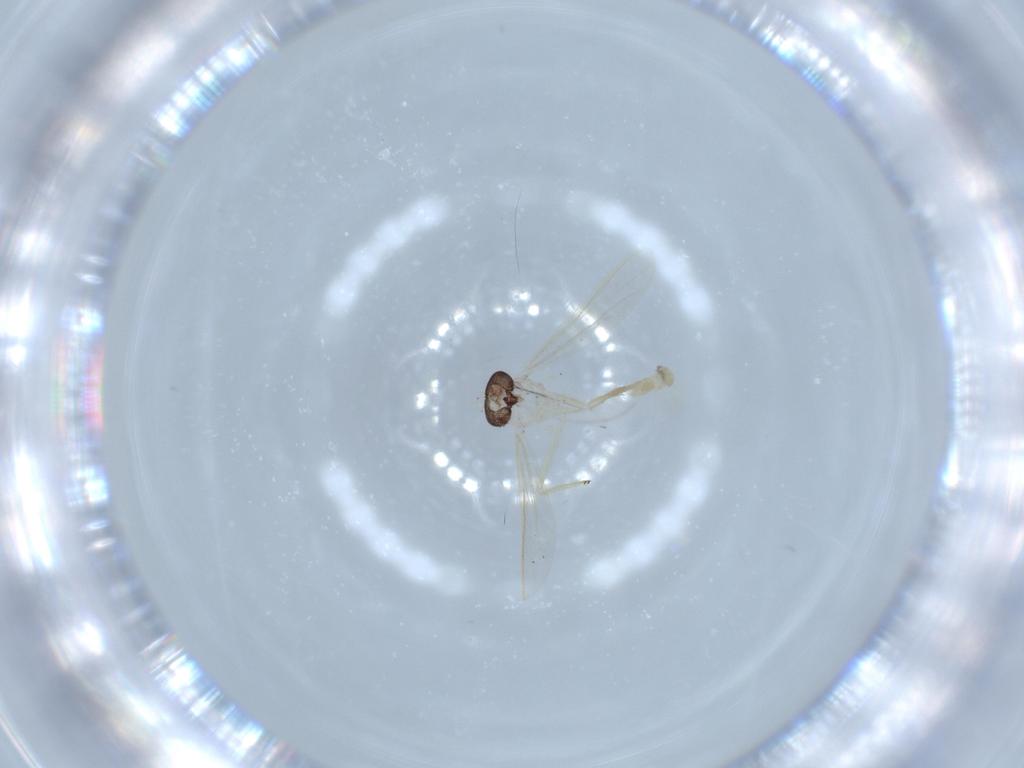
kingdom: Animalia
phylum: Arthropoda
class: Insecta
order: Diptera
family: Chironomidae
